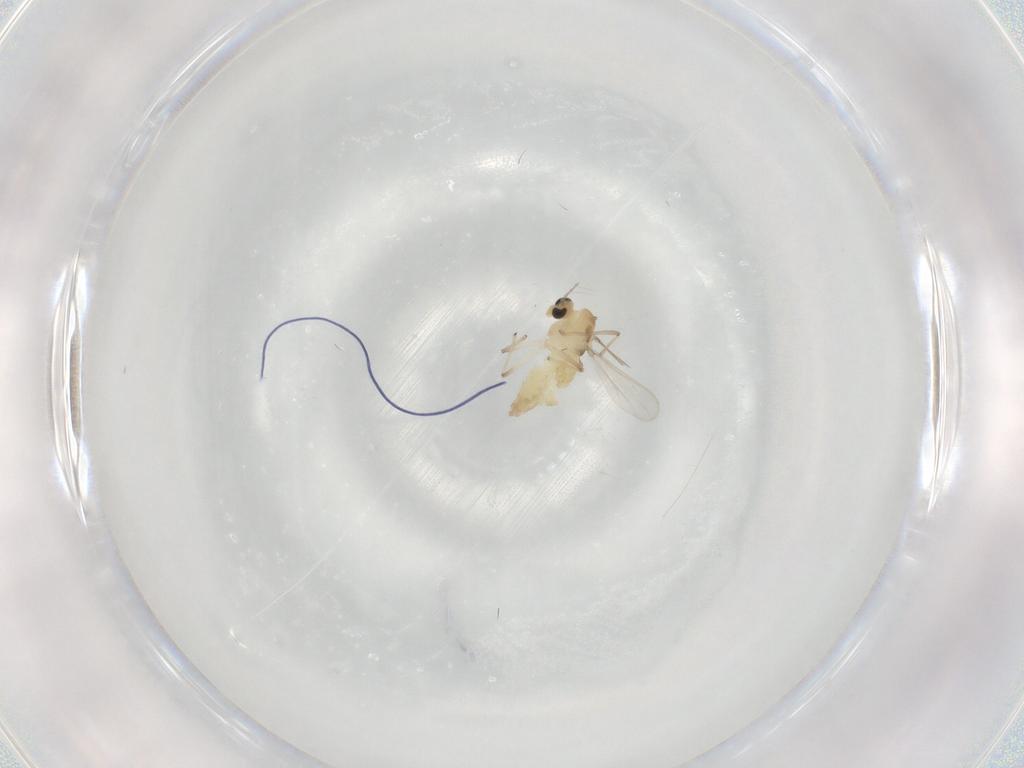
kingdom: Animalia
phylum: Arthropoda
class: Insecta
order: Diptera
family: Chironomidae
